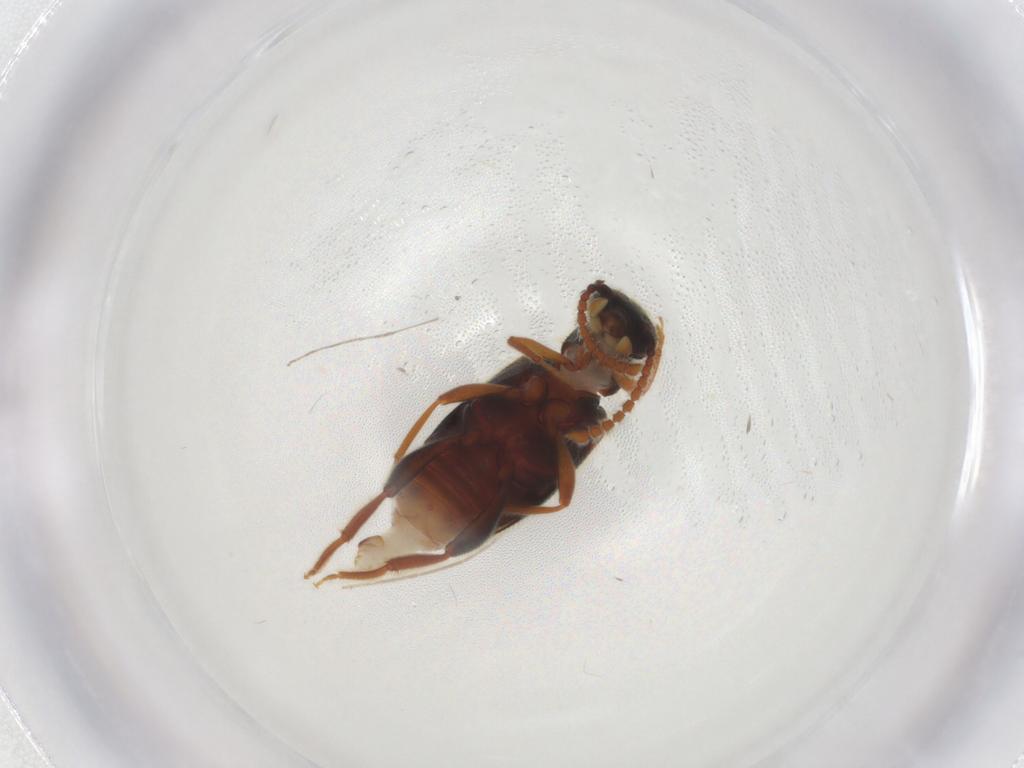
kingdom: Animalia
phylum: Arthropoda
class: Insecta
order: Coleoptera
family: Aderidae
